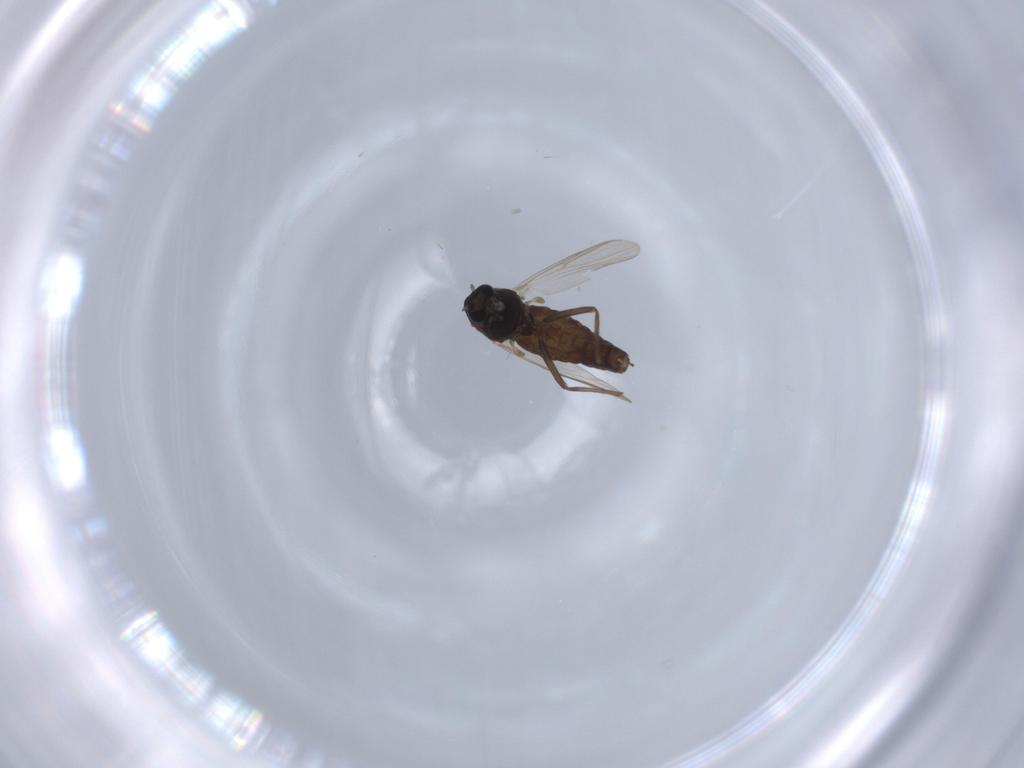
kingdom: Animalia
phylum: Arthropoda
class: Insecta
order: Diptera
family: Chironomidae
